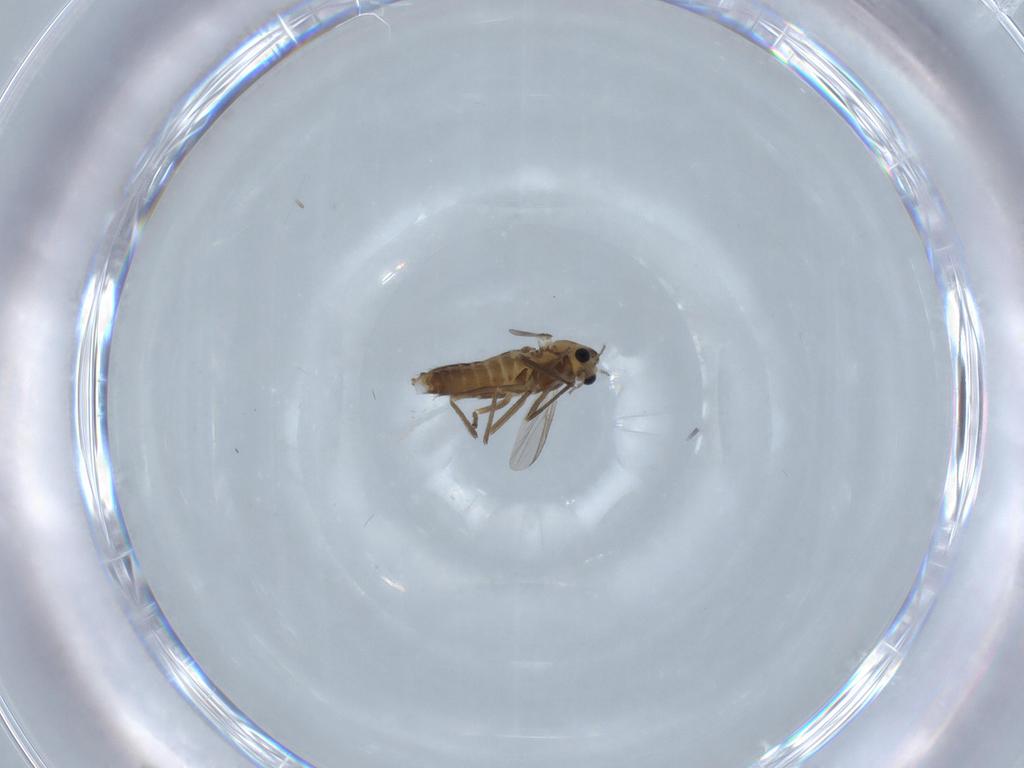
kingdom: Animalia
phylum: Arthropoda
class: Insecta
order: Diptera
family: Chironomidae
